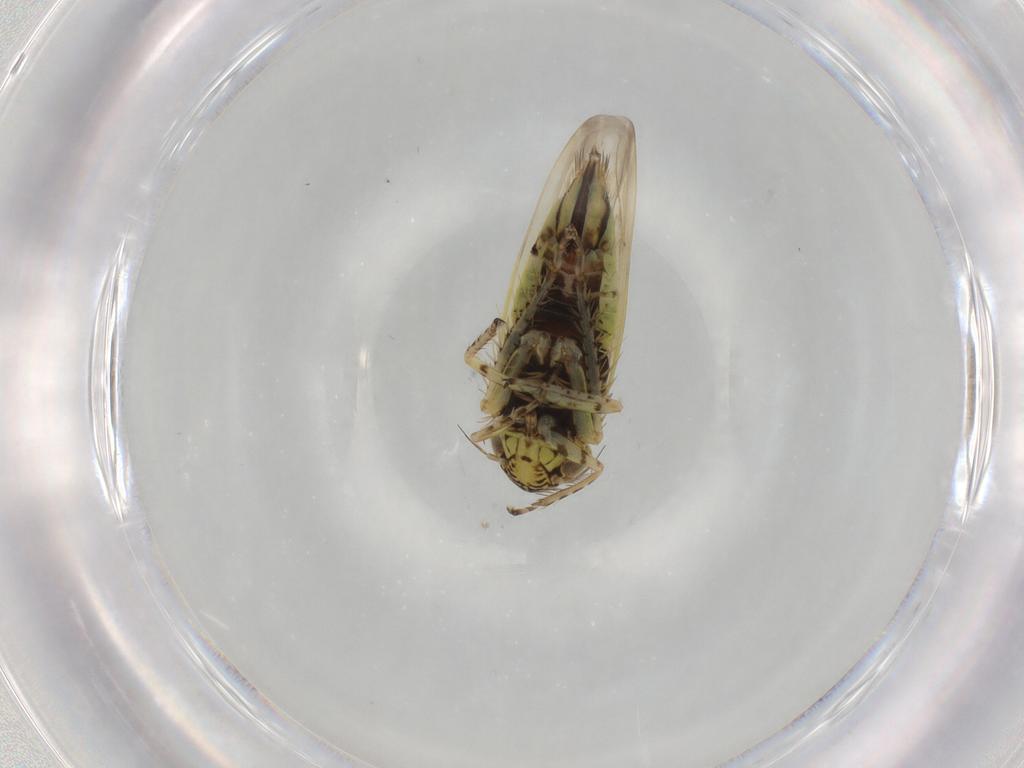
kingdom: Animalia
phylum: Arthropoda
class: Insecta
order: Hemiptera
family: Cicadellidae
